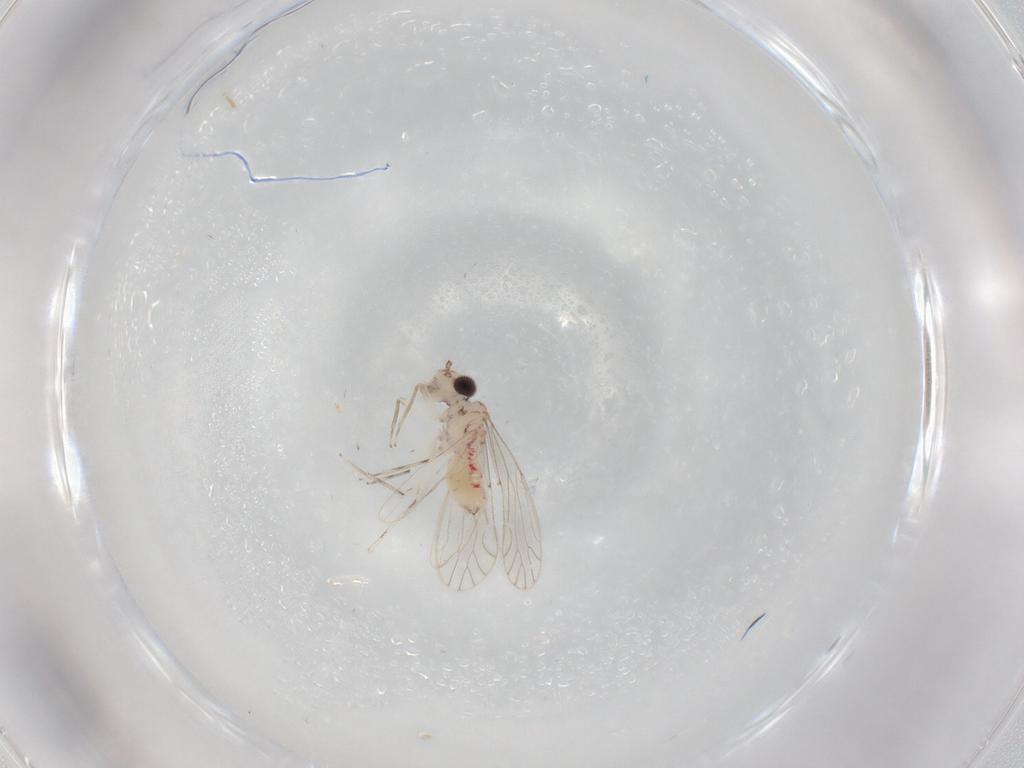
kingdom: Animalia
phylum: Arthropoda
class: Insecta
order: Psocodea
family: Caeciliusidae
